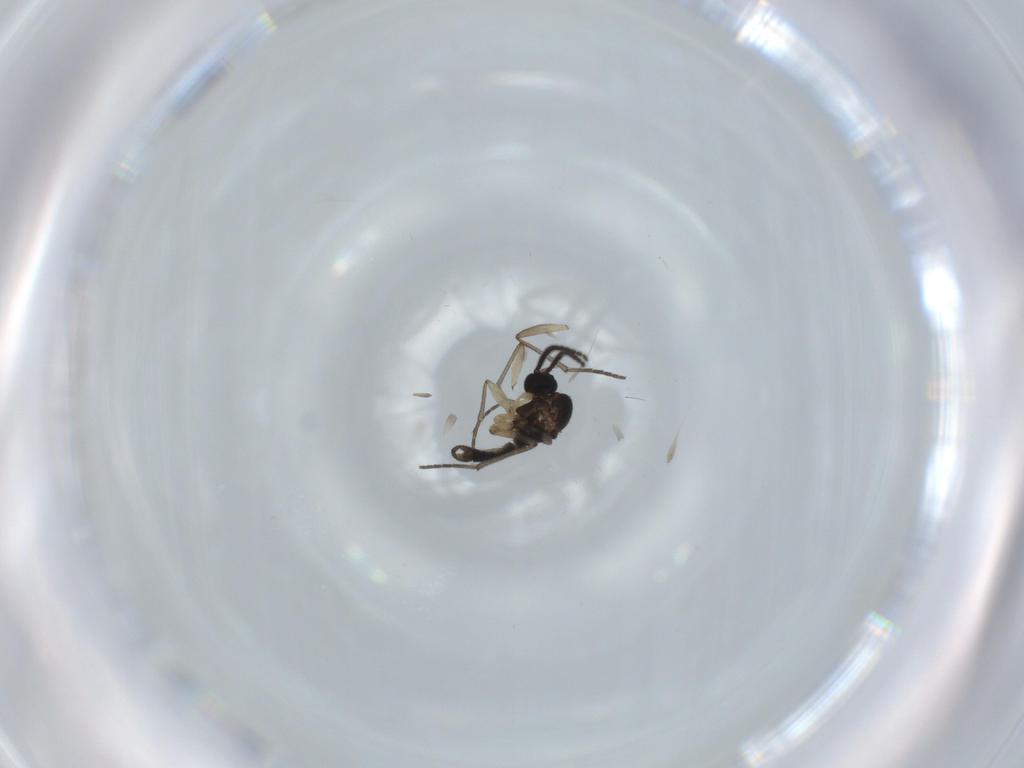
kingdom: Animalia
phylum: Arthropoda
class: Insecta
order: Diptera
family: Sciaridae
